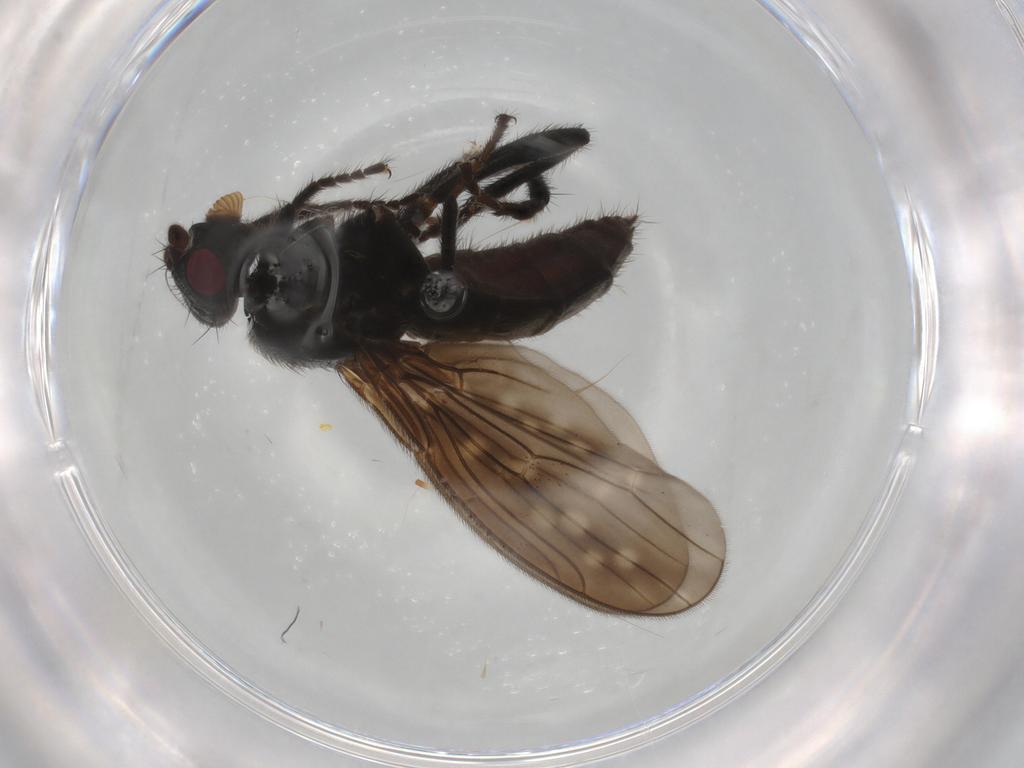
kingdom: Animalia
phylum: Arthropoda
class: Insecta
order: Diptera
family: Sphaeroceridae
